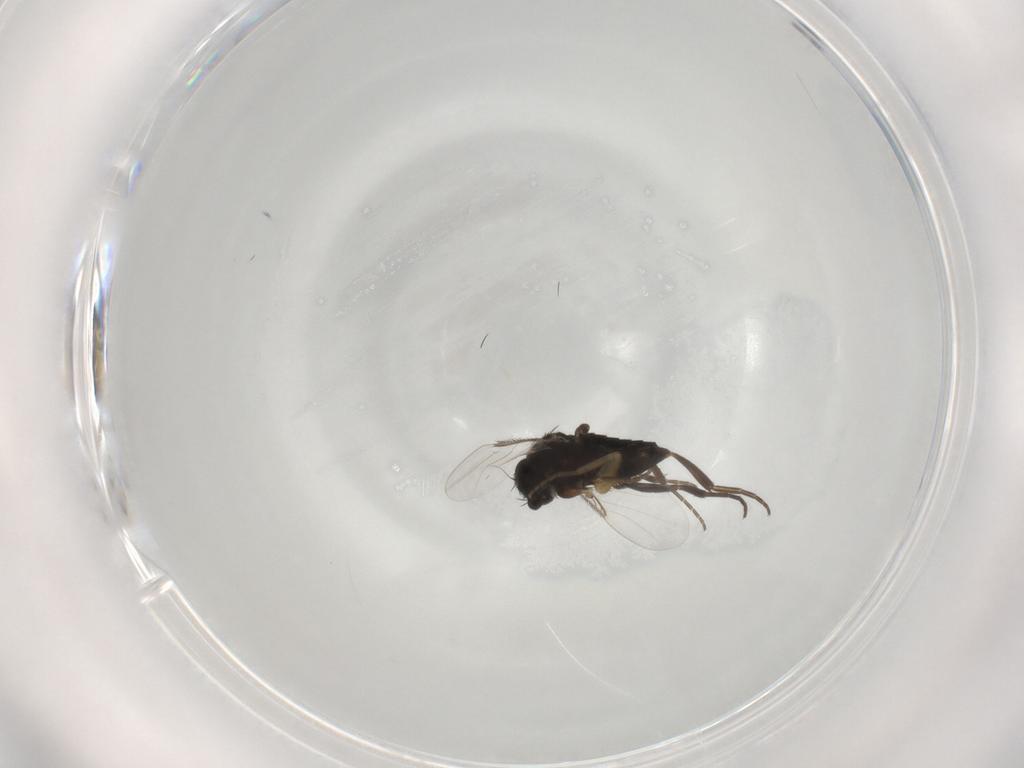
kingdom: Animalia
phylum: Arthropoda
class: Insecta
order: Diptera
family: Phoridae
